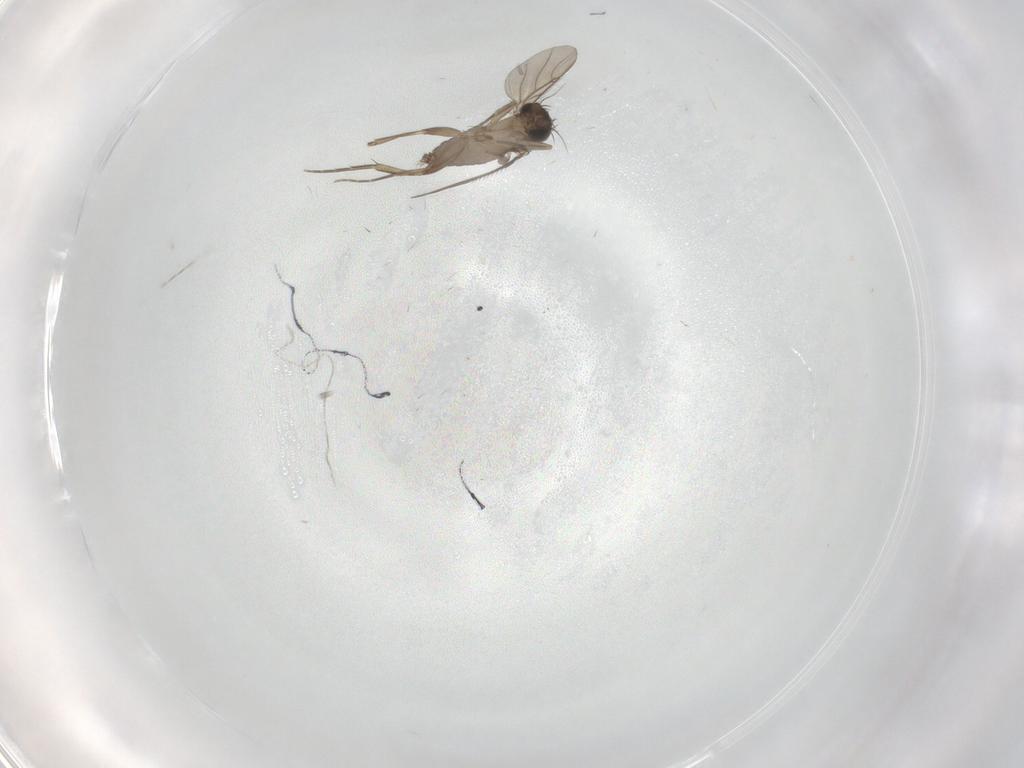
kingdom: Animalia
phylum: Arthropoda
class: Insecta
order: Diptera
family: Phoridae
